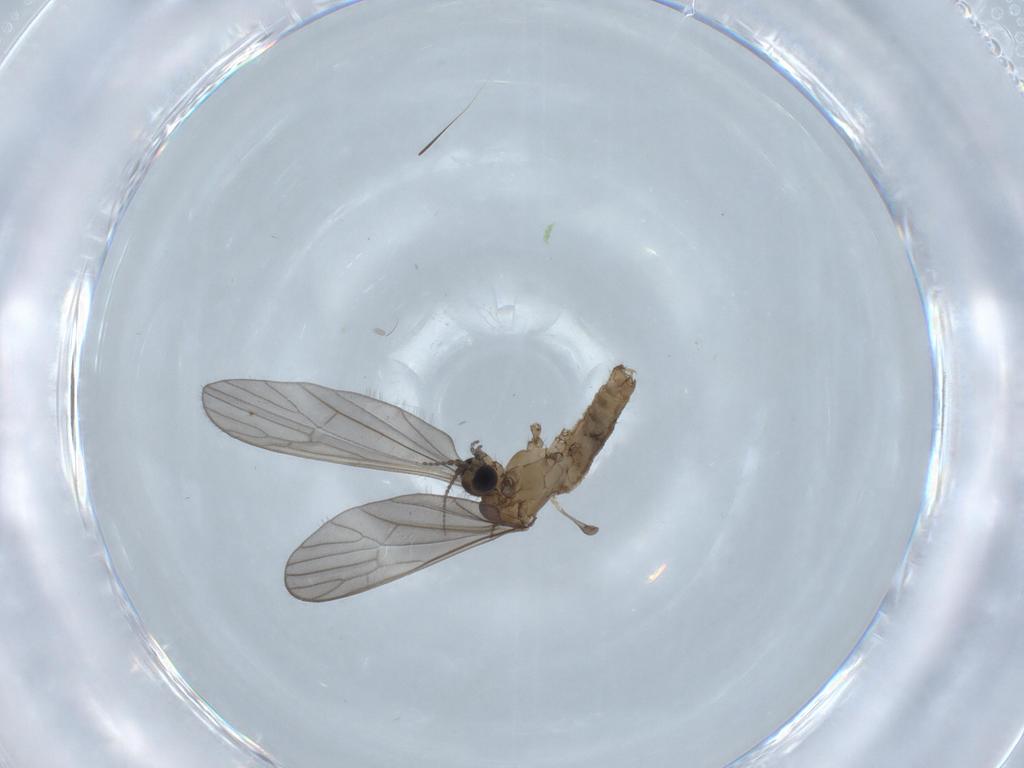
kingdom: Animalia
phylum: Arthropoda
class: Insecta
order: Diptera
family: Limoniidae
